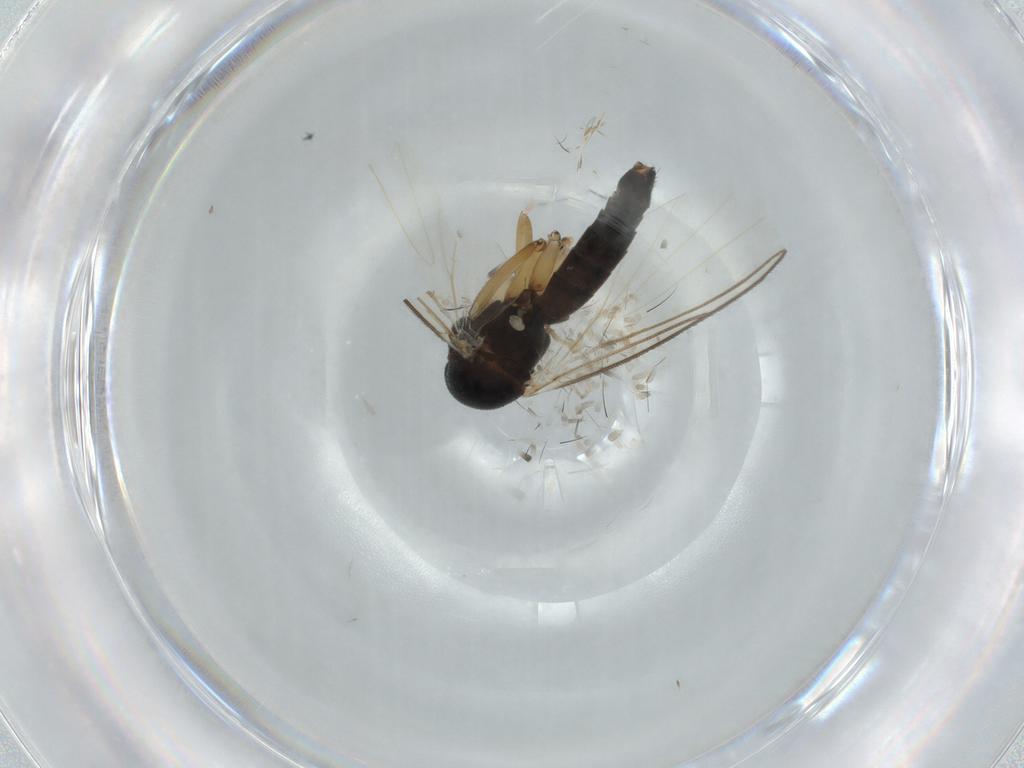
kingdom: Animalia
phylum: Arthropoda
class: Insecta
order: Diptera
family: Mycetophilidae
